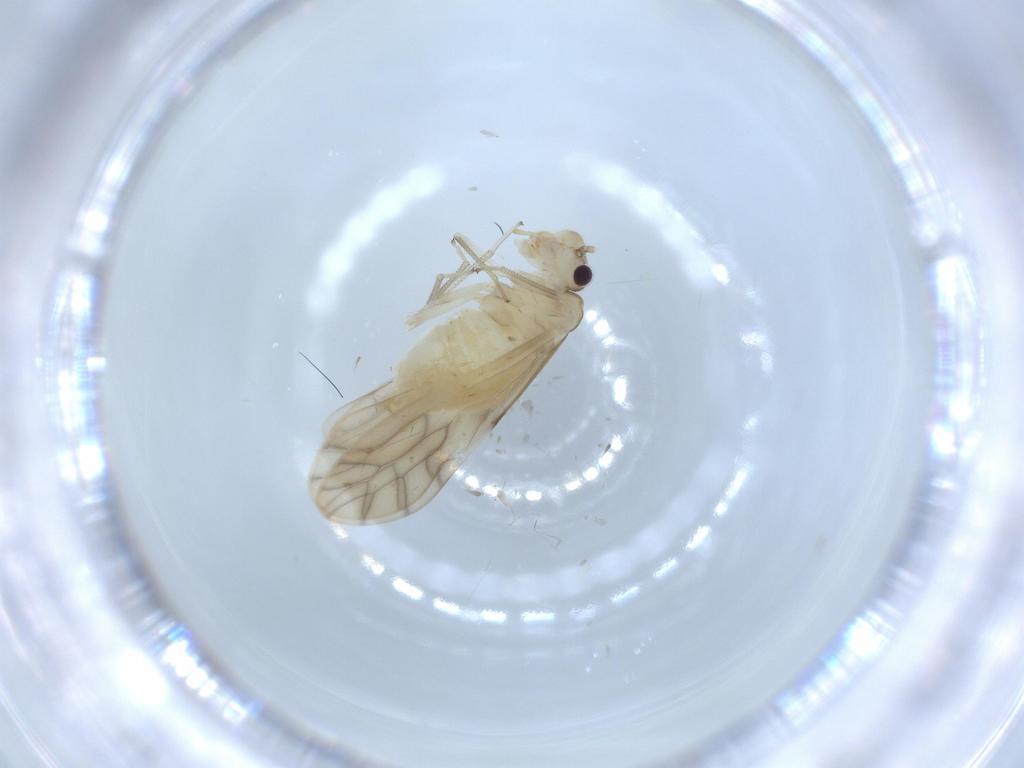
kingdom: Animalia
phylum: Arthropoda
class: Insecta
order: Psocodea
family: Caeciliusidae
